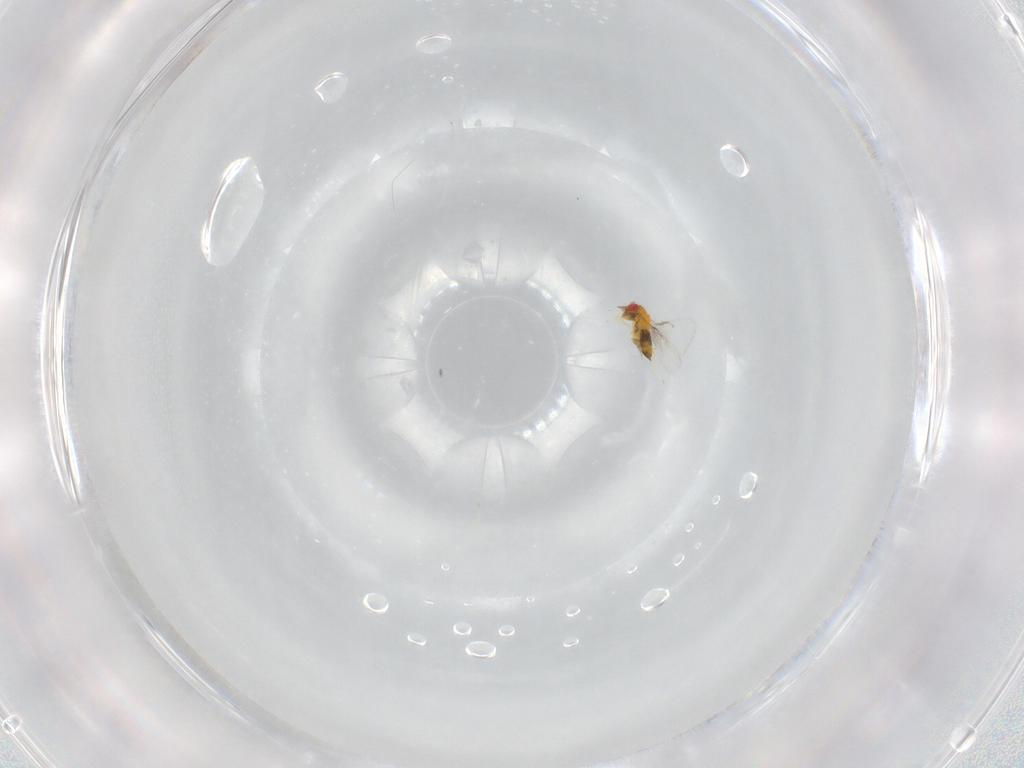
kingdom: Animalia
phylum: Arthropoda
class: Insecta
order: Hymenoptera
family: Trichogrammatidae
